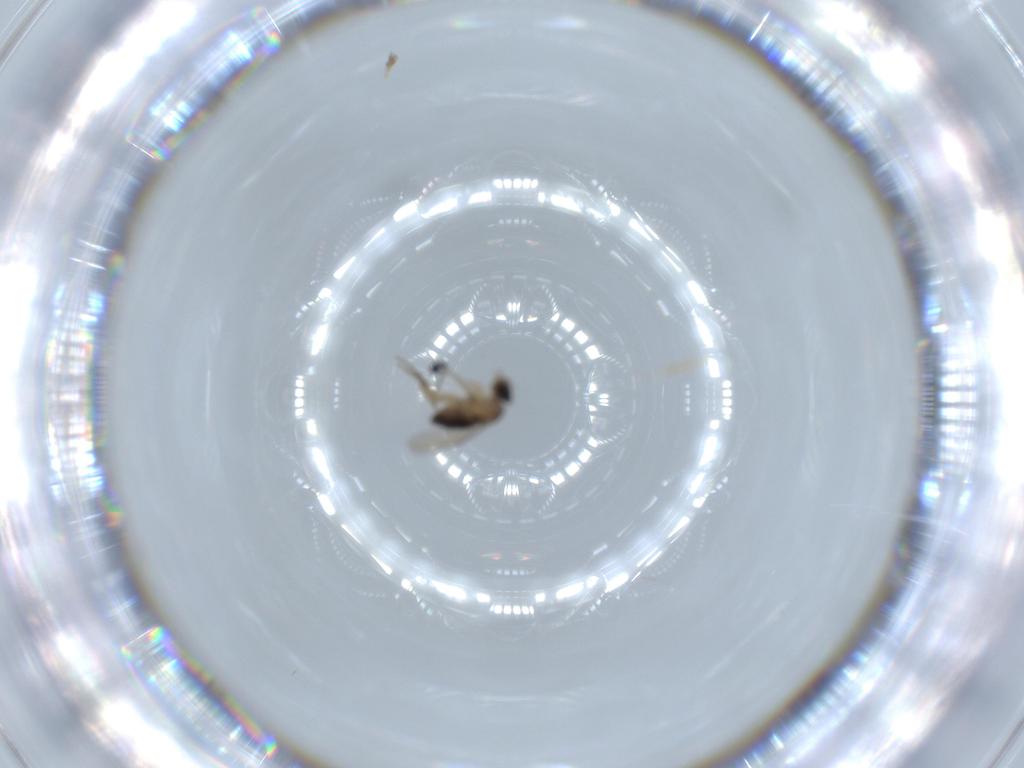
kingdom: Animalia
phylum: Arthropoda
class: Insecta
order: Diptera
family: Phoridae
